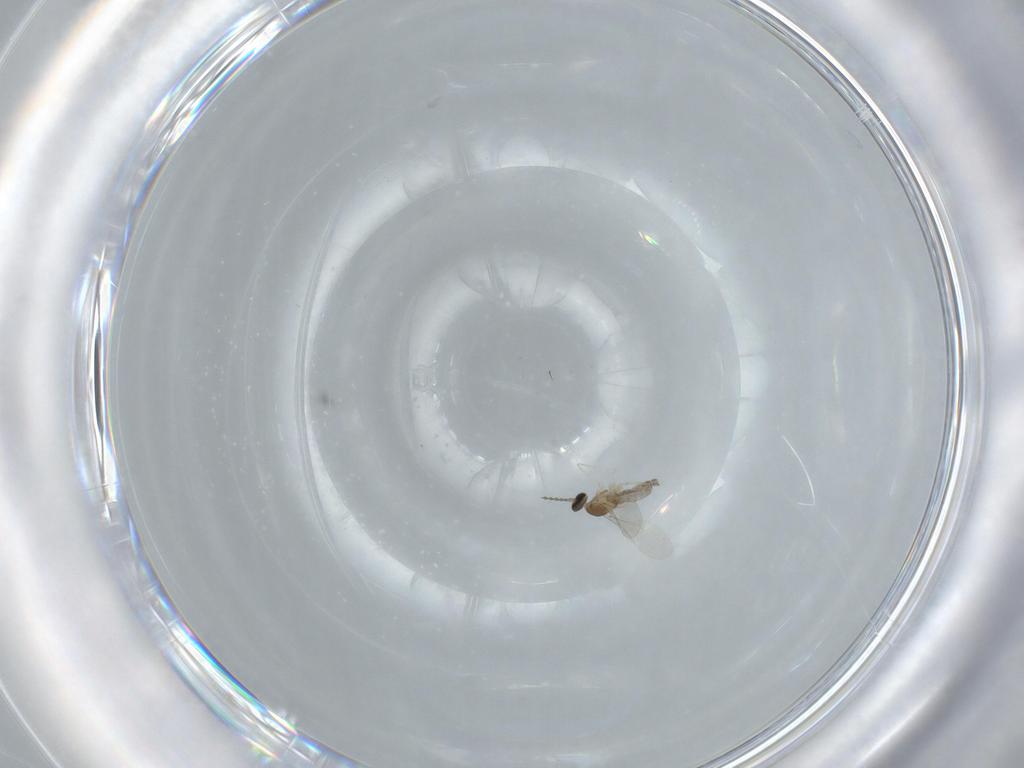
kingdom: Animalia
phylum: Arthropoda
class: Insecta
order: Diptera
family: Cecidomyiidae
